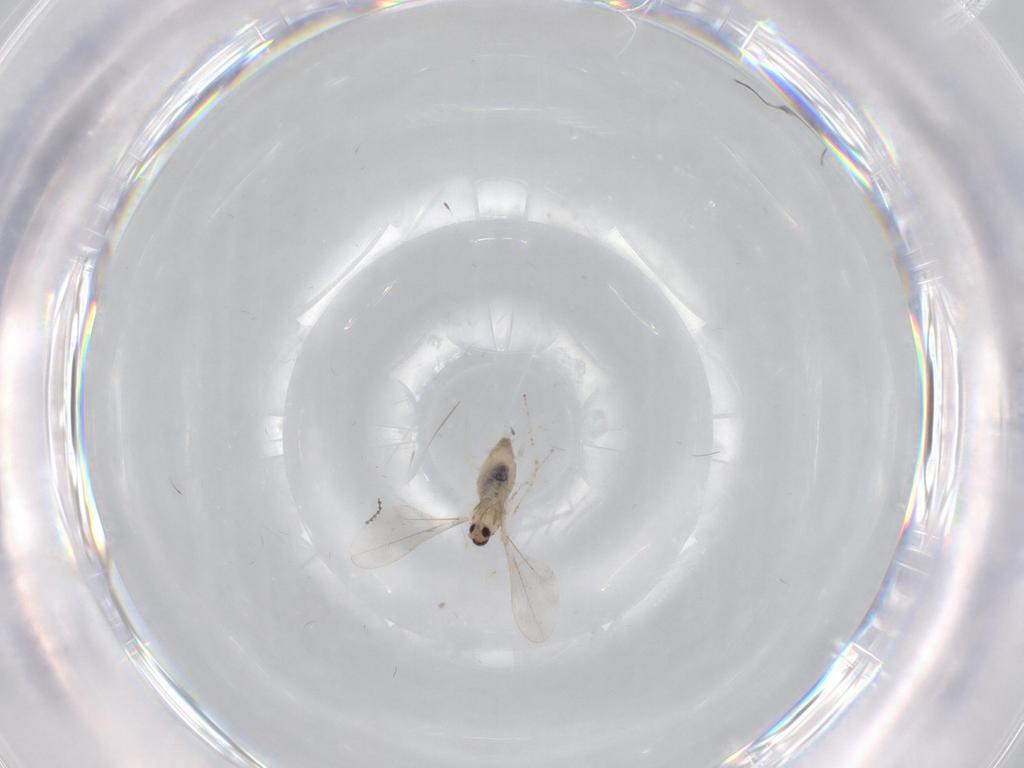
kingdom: Animalia
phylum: Arthropoda
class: Insecta
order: Diptera
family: Cecidomyiidae
